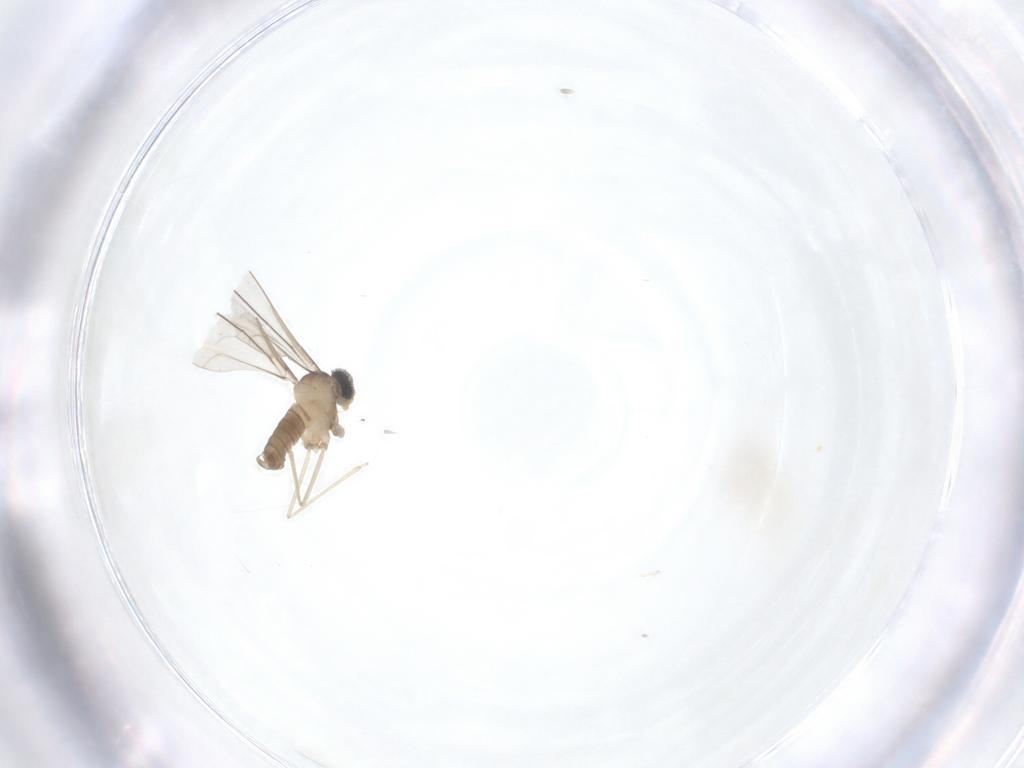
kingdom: Animalia
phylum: Arthropoda
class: Insecta
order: Diptera
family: Cecidomyiidae
